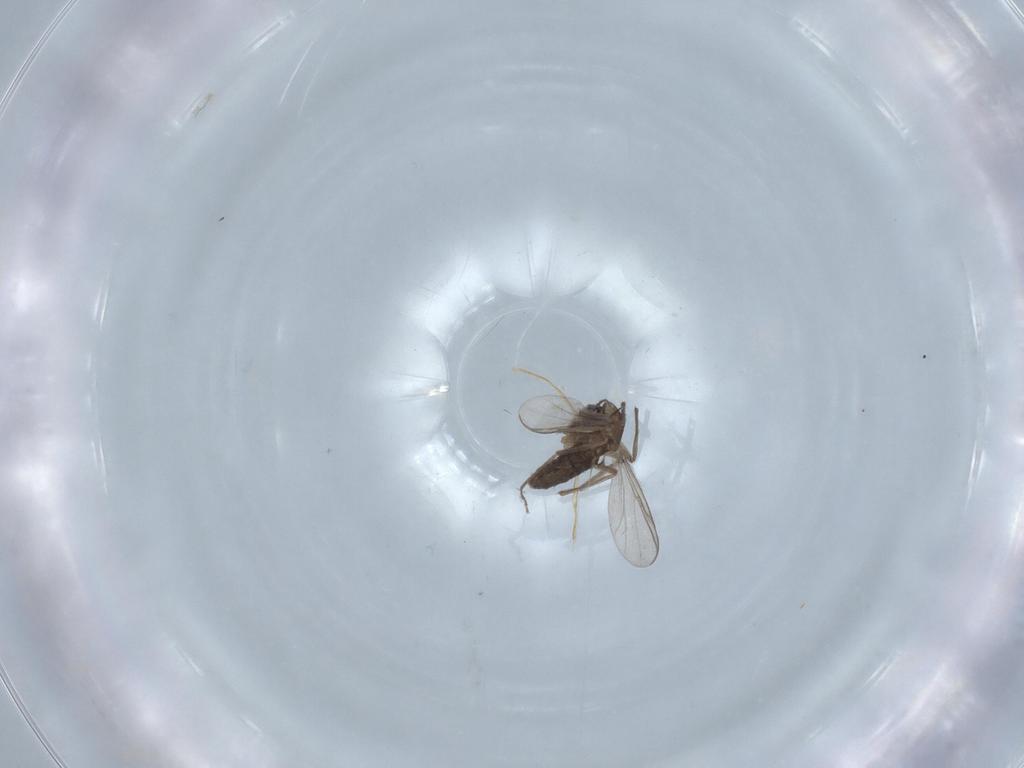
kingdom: Animalia
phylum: Arthropoda
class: Insecta
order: Diptera
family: Chironomidae
